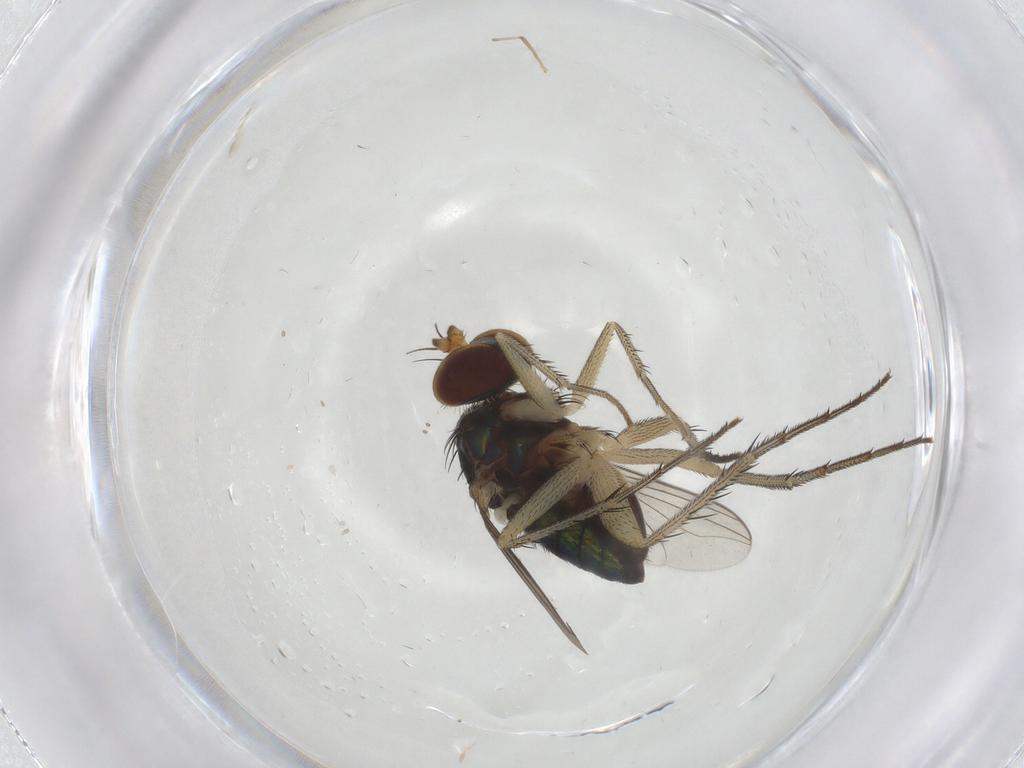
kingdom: Animalia
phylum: Arthropoda
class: Insecta
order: Diptera
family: Dolichopodidae
